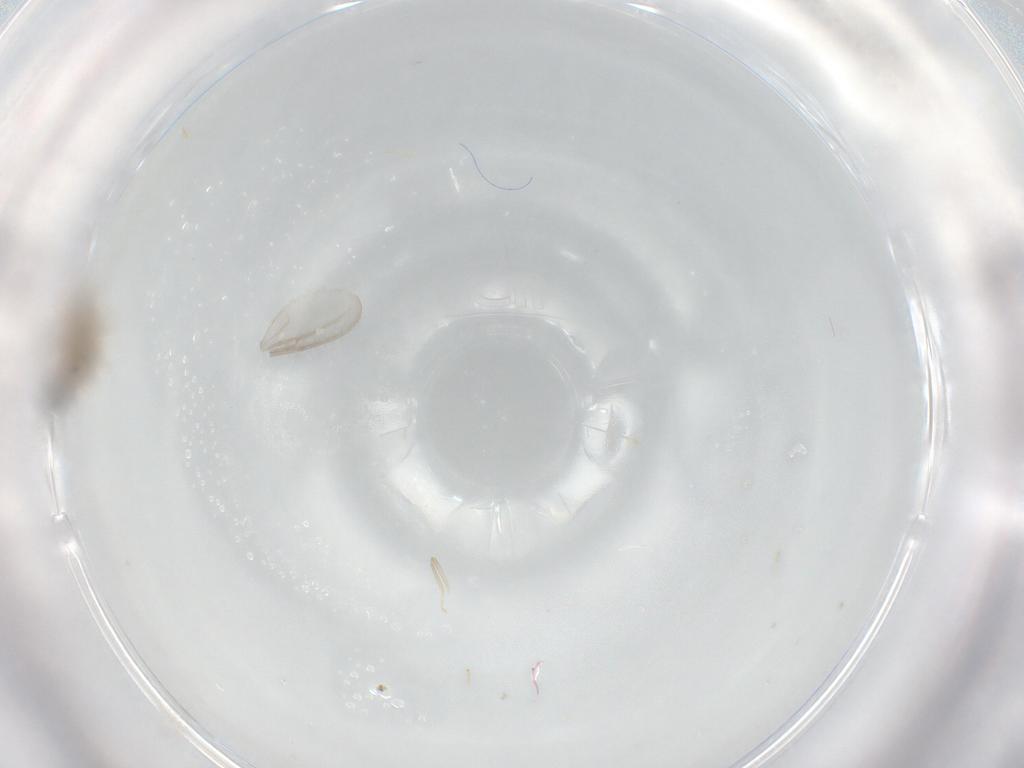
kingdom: Animalia
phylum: Arthropoda
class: Insecta
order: Diptera
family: Cecidomyiidae
